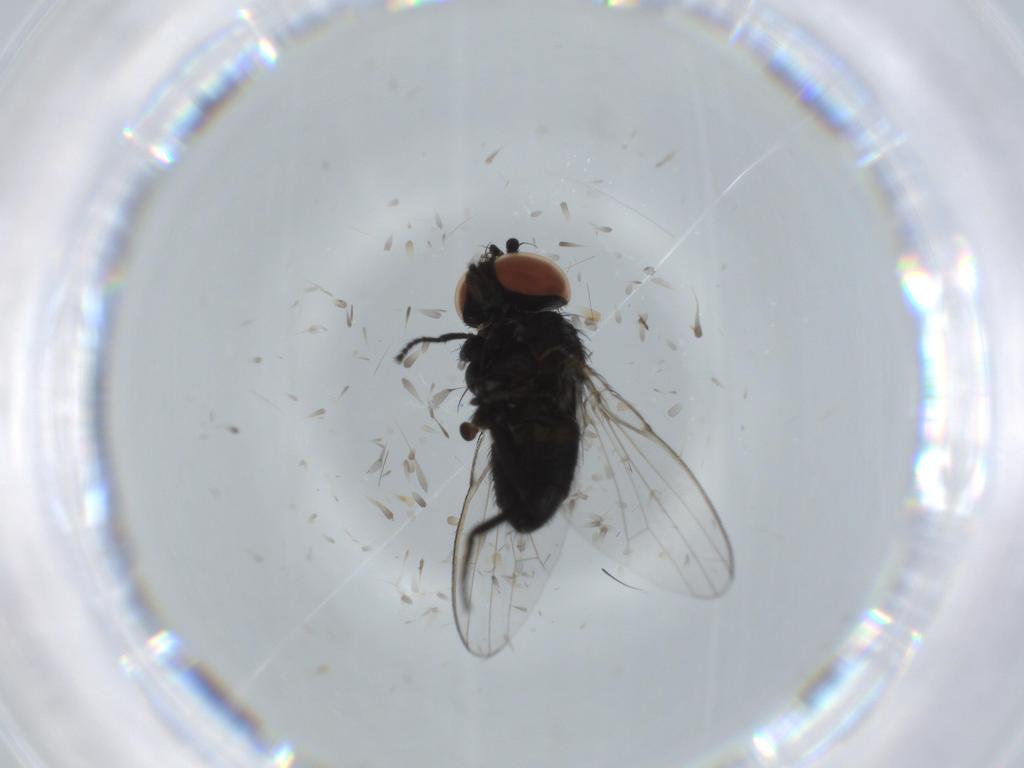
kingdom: Animalia
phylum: Arthropoda
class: Insecta
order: Diptera
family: Milichiidae
